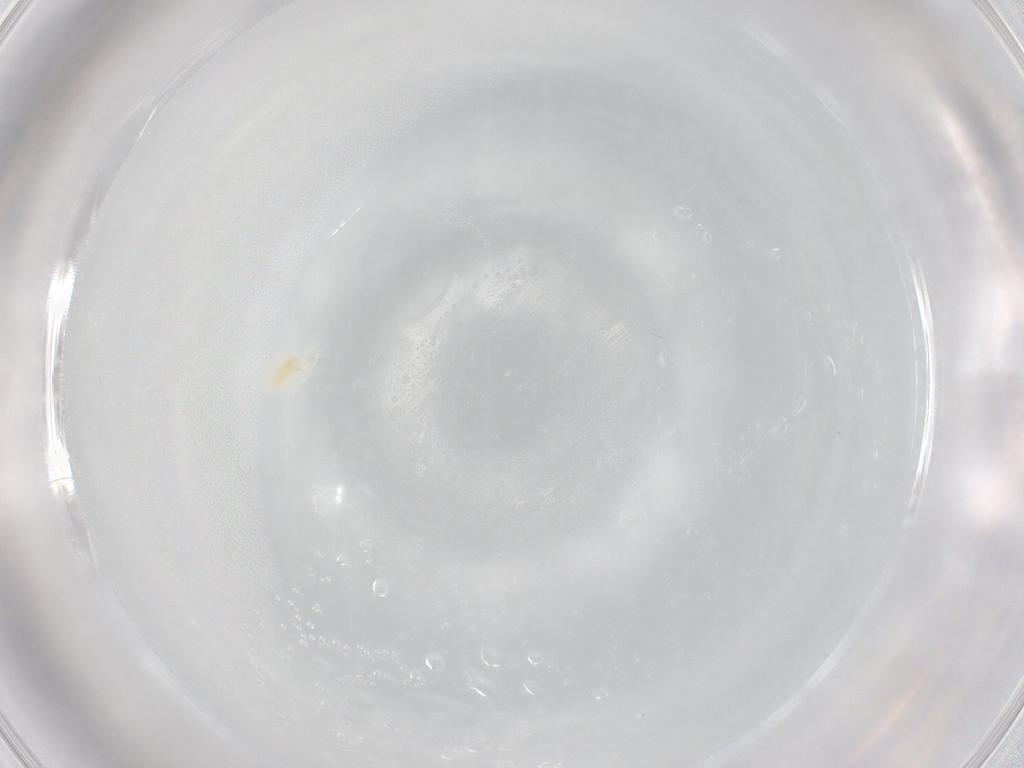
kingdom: Animalia
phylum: Arthropoda
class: Arachnida
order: Trombidiformes
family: Eupodidae
